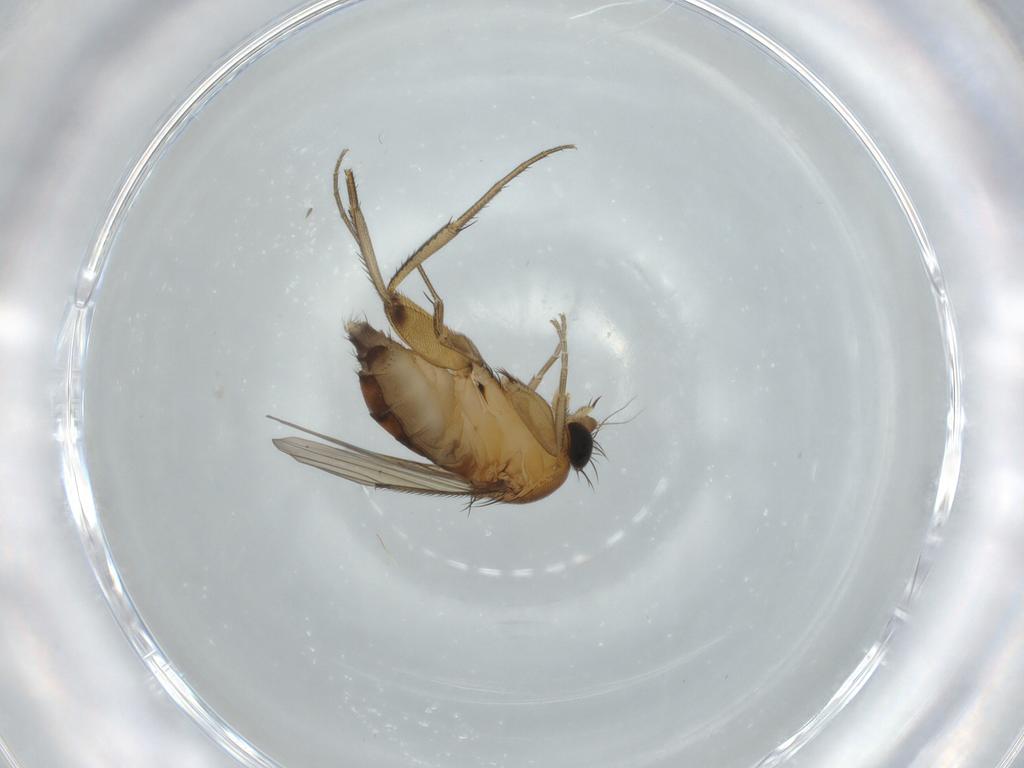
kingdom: Animalia
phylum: Arthropoda
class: Insecta
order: Diptera
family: Phoridae
